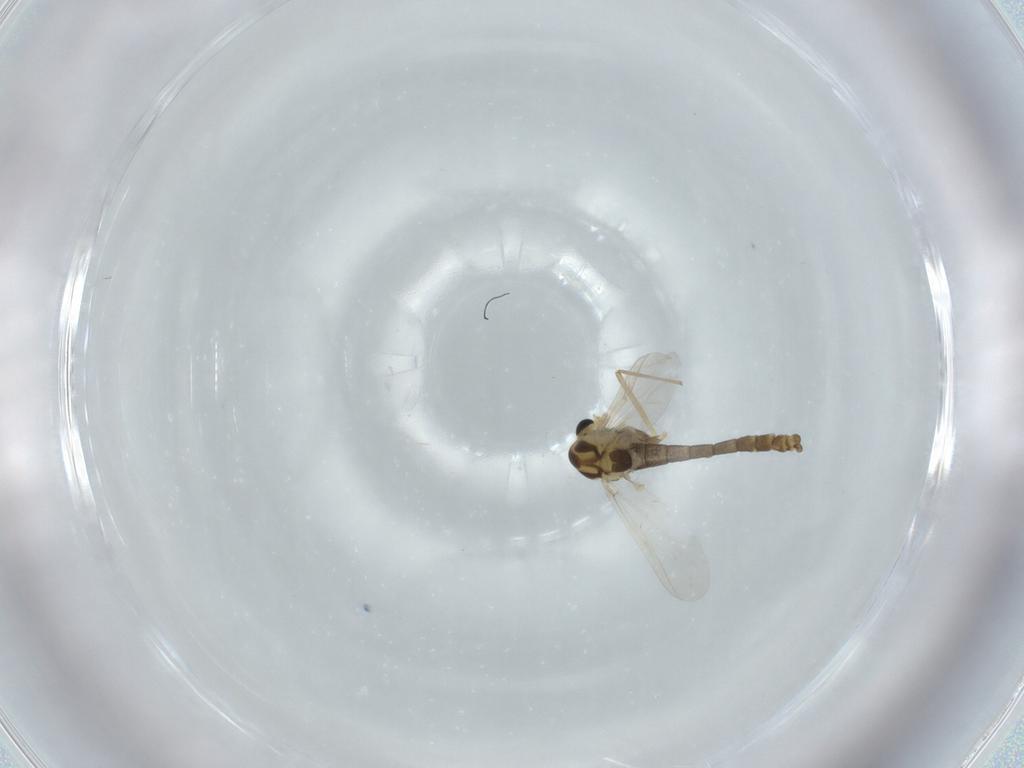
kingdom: Animalia
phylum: Arthropoda
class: Insecta
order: Diptera
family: Chironomidae
